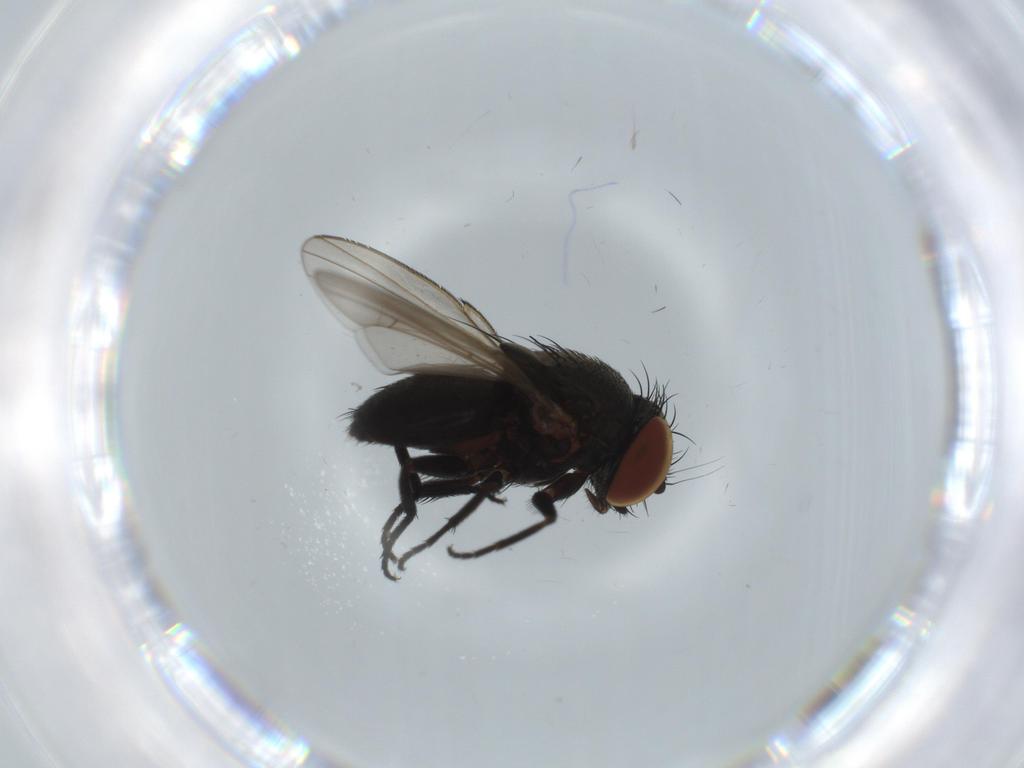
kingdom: Animalia
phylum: Arthropoda
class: Insecta
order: Diptera
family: Milichiidae
